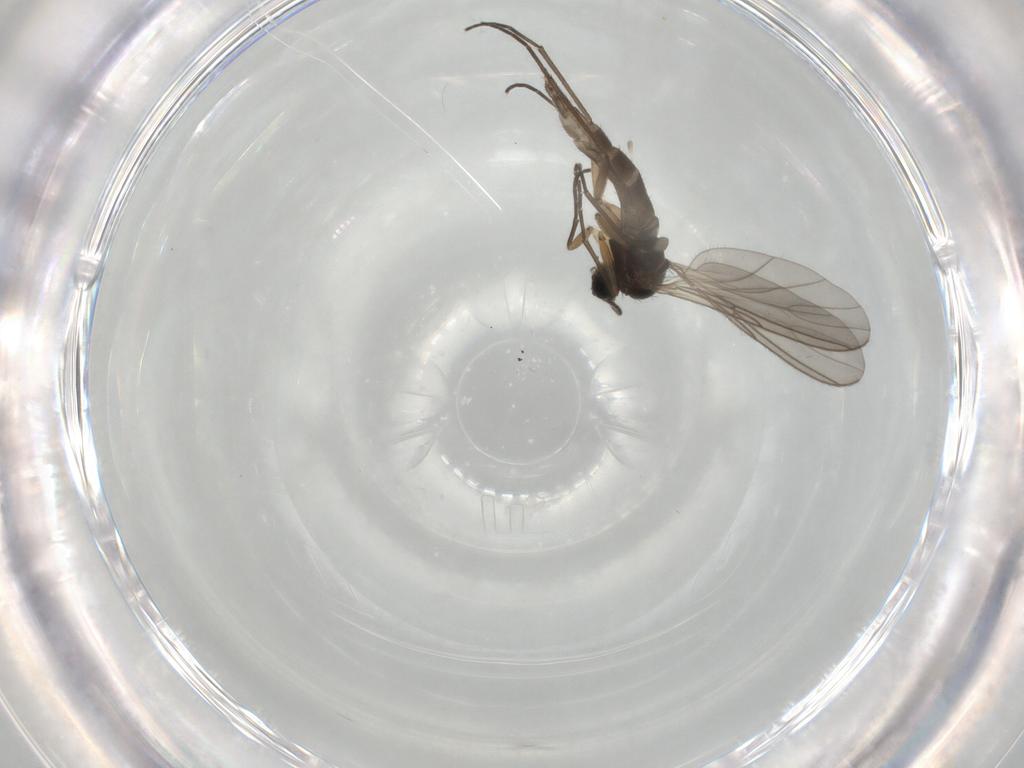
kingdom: Animalia
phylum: Arthropoda
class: Insecta
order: Diptera
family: Sciaridae
